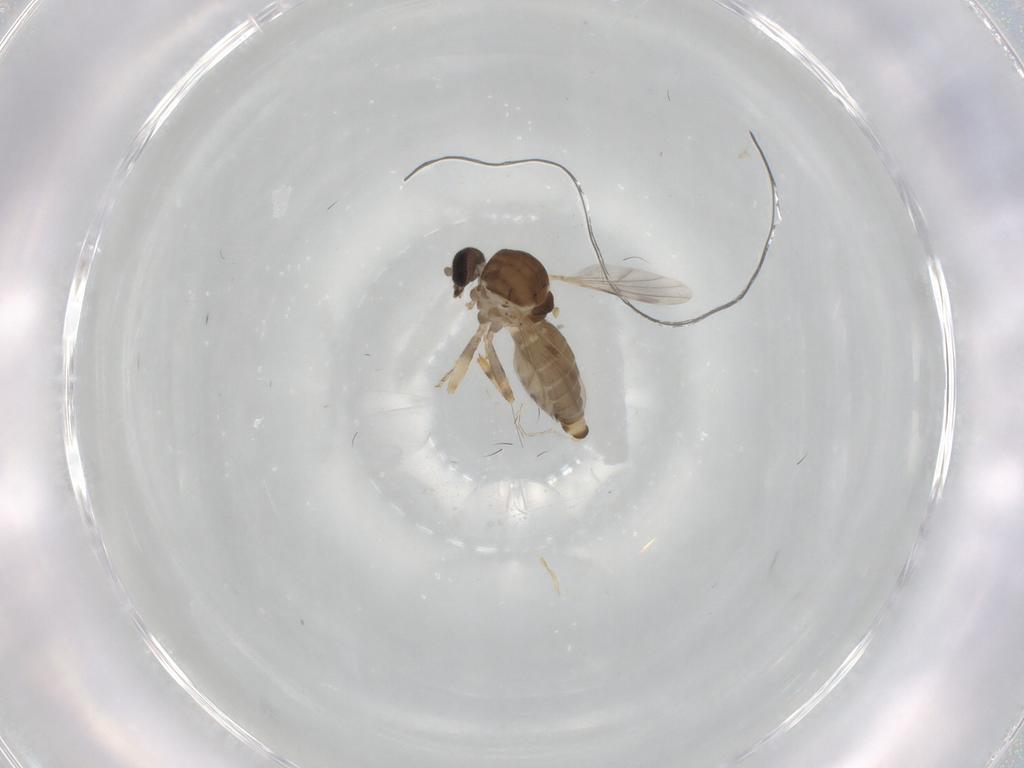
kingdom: Animalia
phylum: Arthropoda
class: Insecta
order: Diptera
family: Ceratopogonidae
